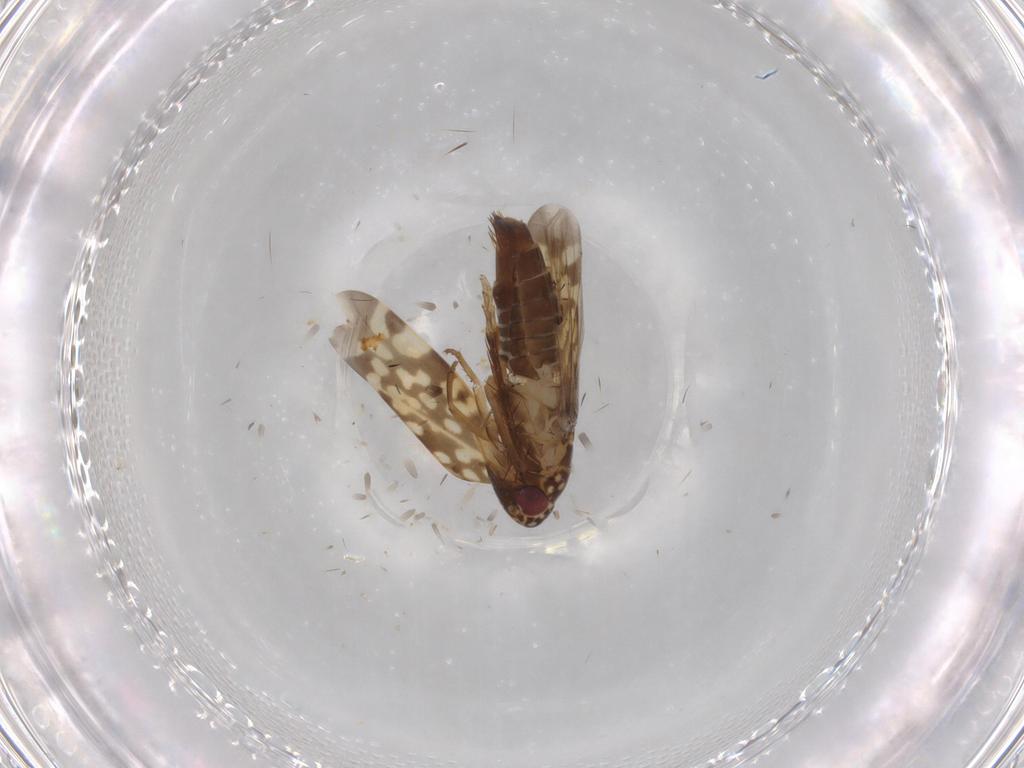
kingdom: Animalia
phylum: Arthropoda
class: Insecta
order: Hemiptera
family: Cicadellidae
